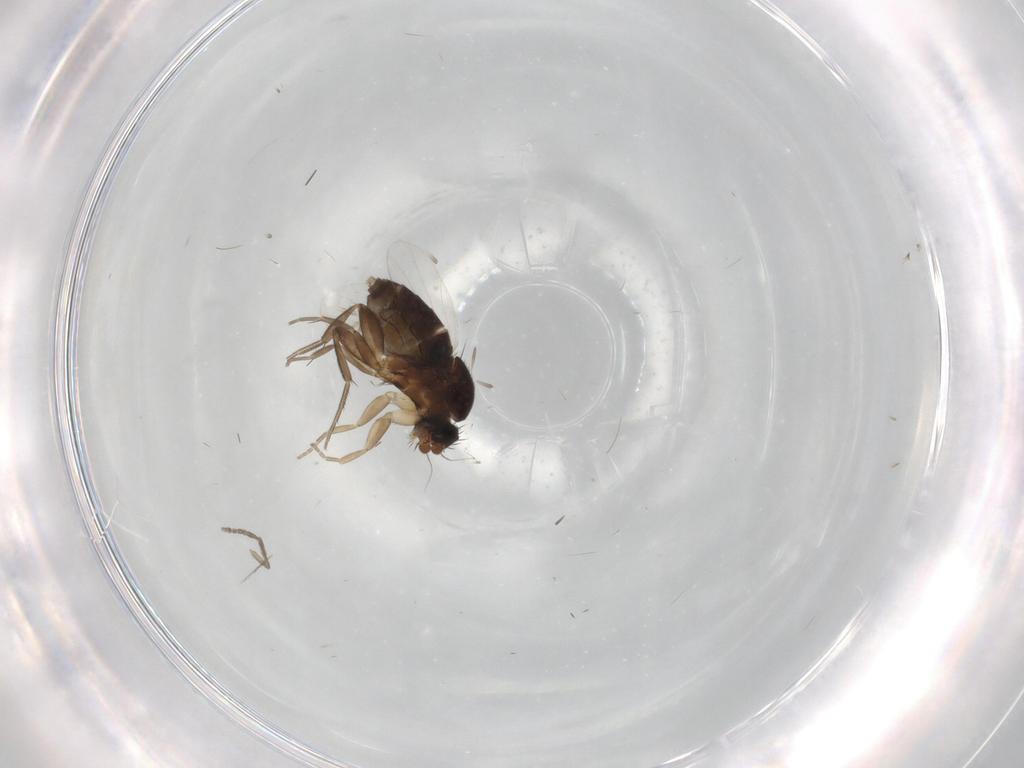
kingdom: Animalia
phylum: Arthropoda
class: Insecta
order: Diptera
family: Phoridae
